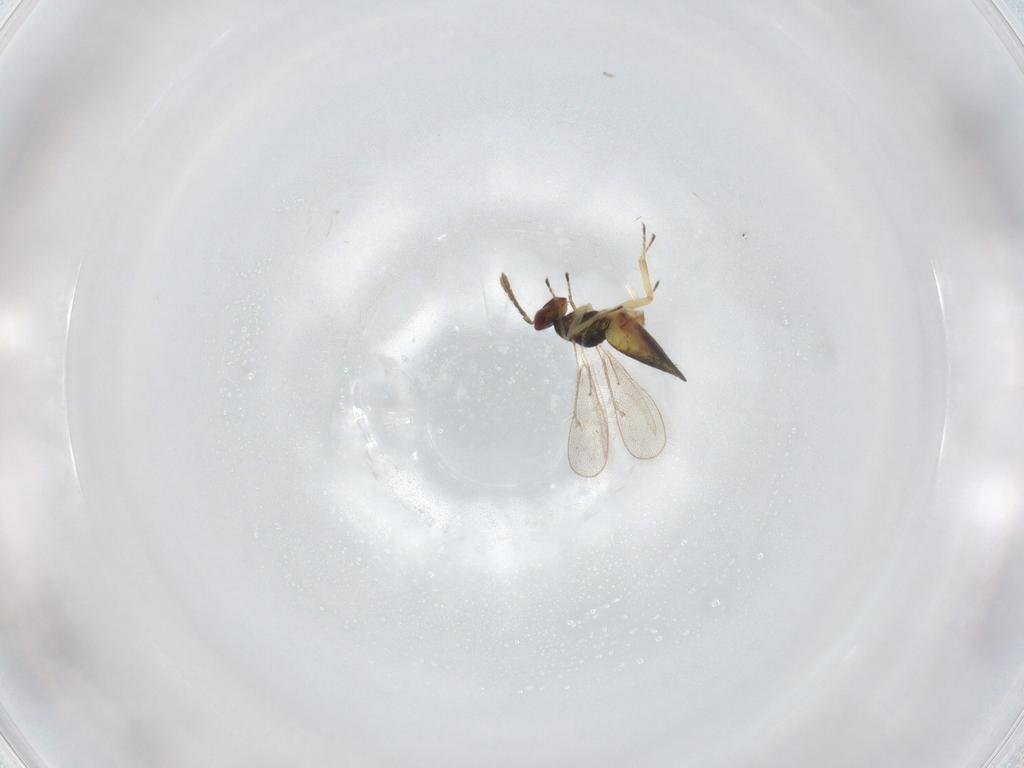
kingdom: Animalia
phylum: Arthropoda
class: Insecta
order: Hymenoptera
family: Eulophidae
